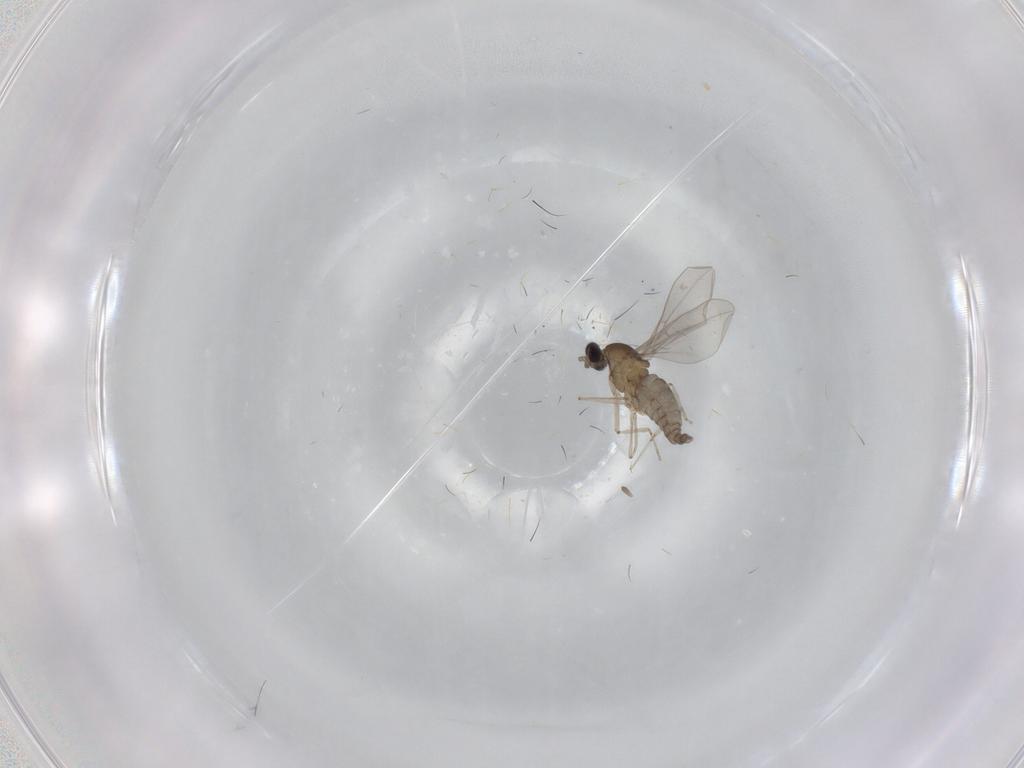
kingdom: Animalia
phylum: Arthropoda
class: Insecta
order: Diptera
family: Cecidomyiidae
